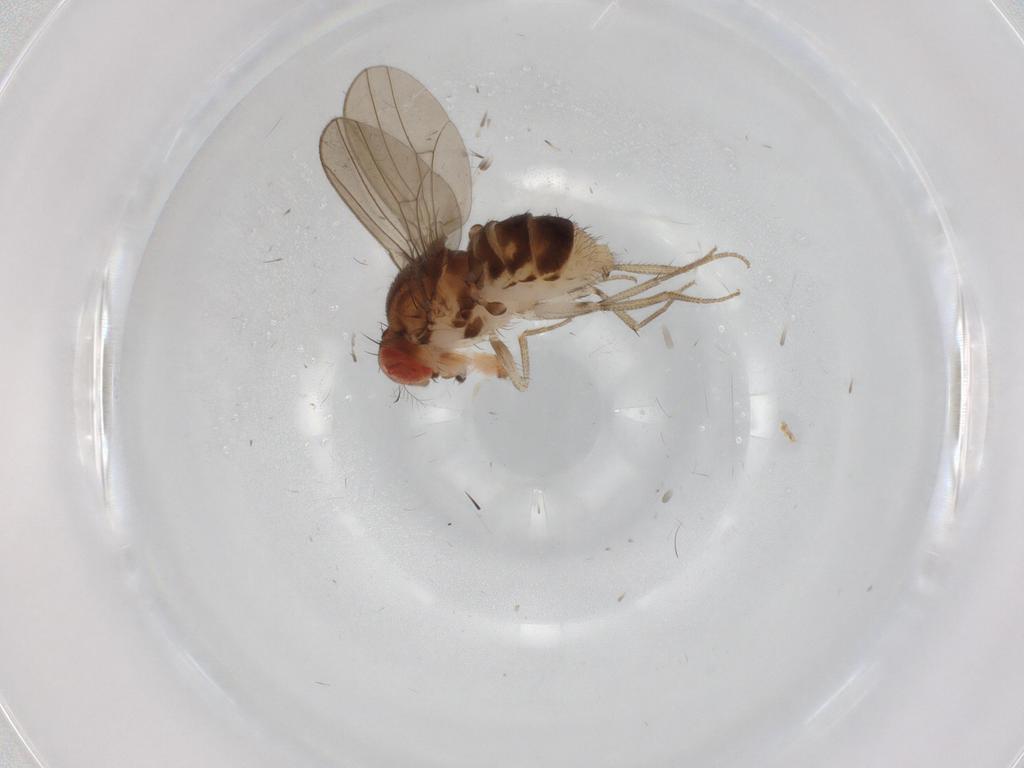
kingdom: Animalia
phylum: Arthropoda
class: Insecta
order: Diptera
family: Drosophilidae
